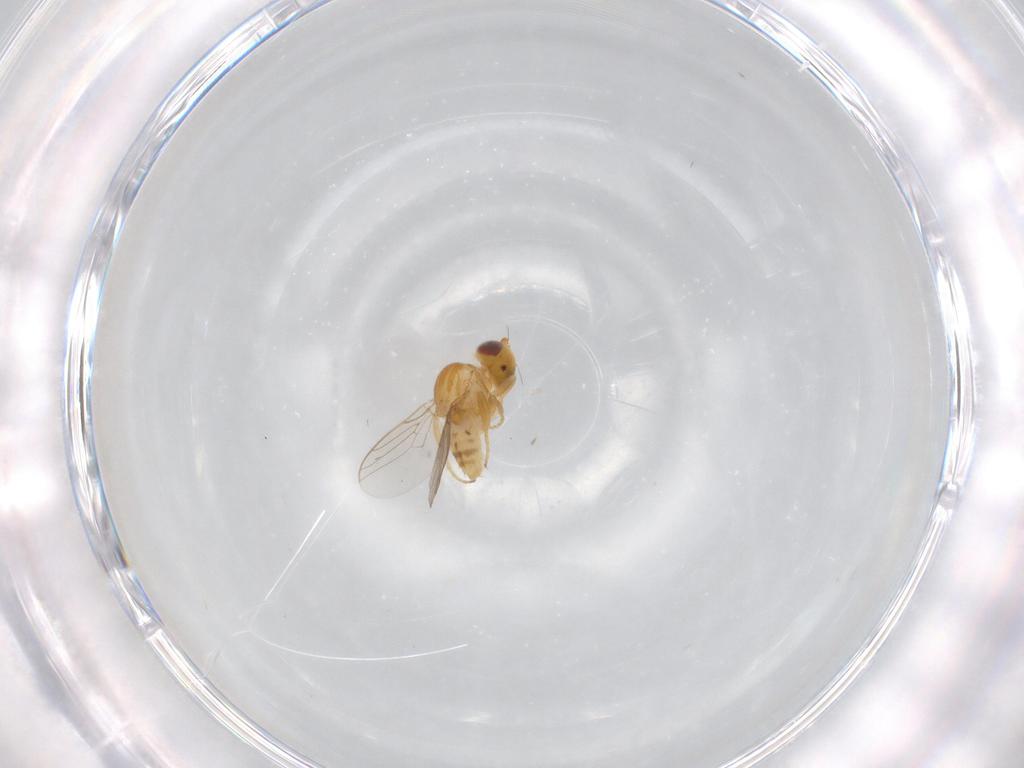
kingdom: Animalia
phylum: Arthropoda
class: Insecta
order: Diptera
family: Chloropidae
